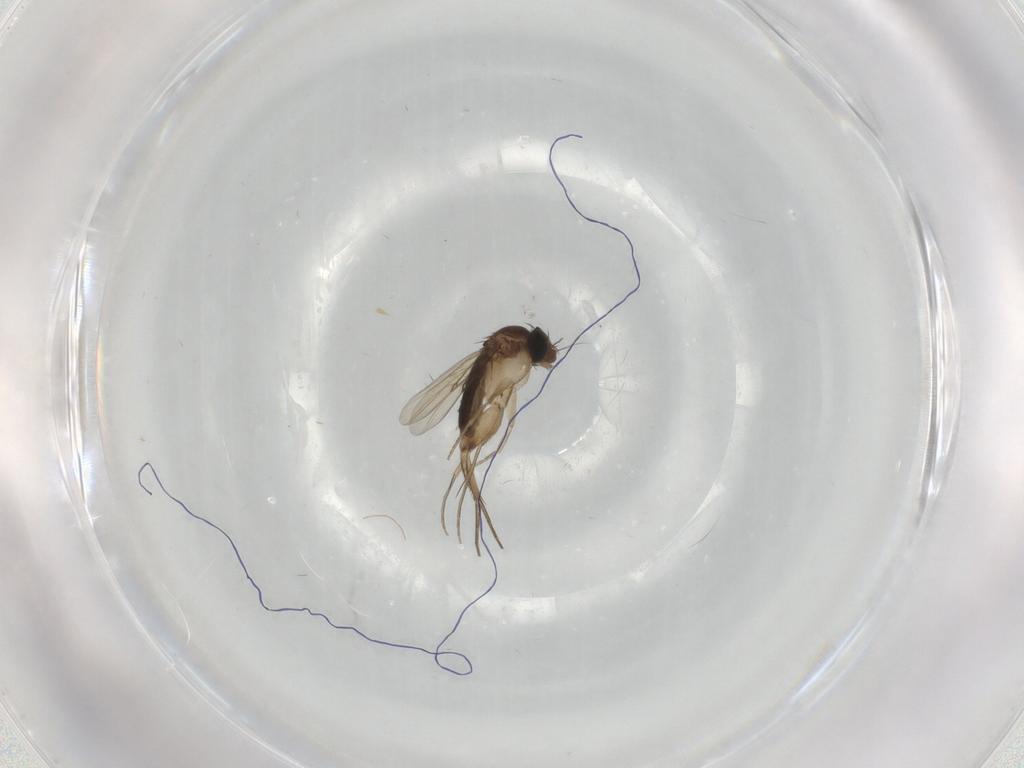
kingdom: Animalia
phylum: Arthropoda
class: Insecta
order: Diptera
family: Phoridae
